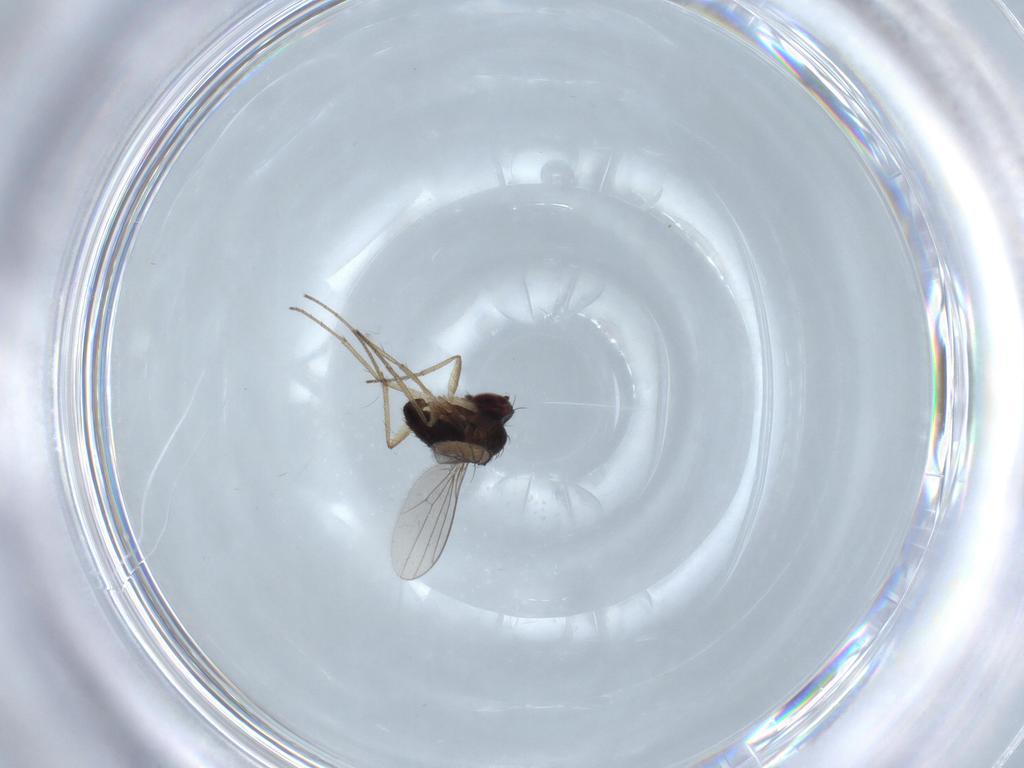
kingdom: Animalia
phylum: Arthropoda
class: Insecta
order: Diptera
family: Dolichopodidae
